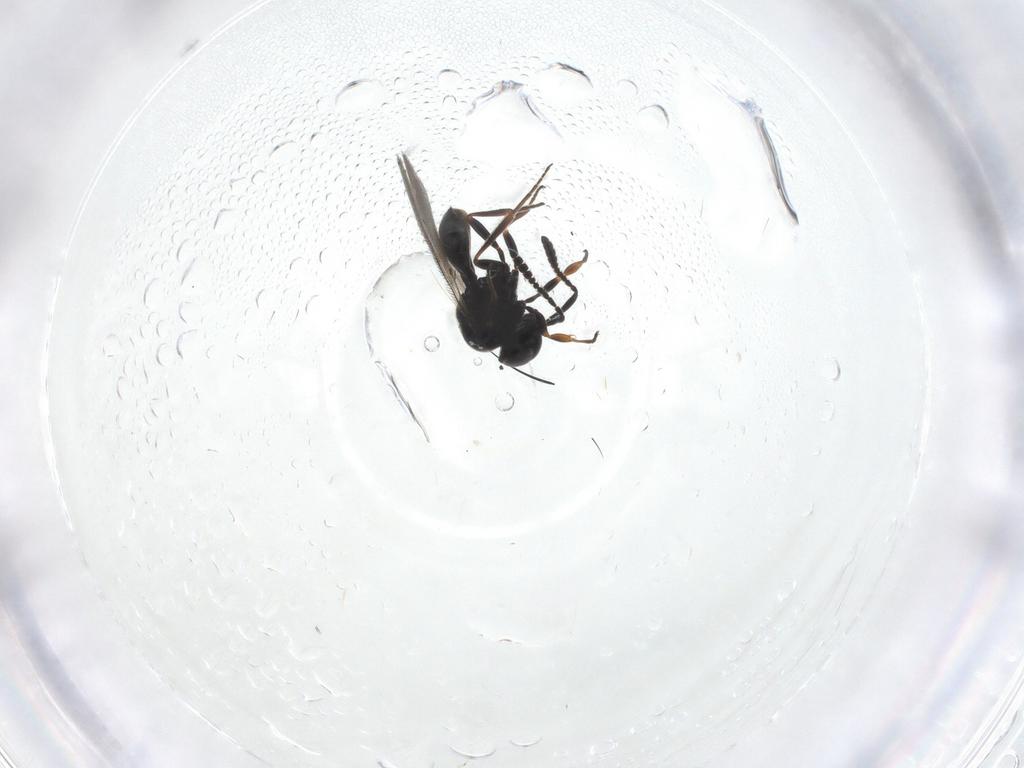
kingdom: Animalia
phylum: Arthropoda
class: Insecta
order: Hymenoptera
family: Scelionidae
